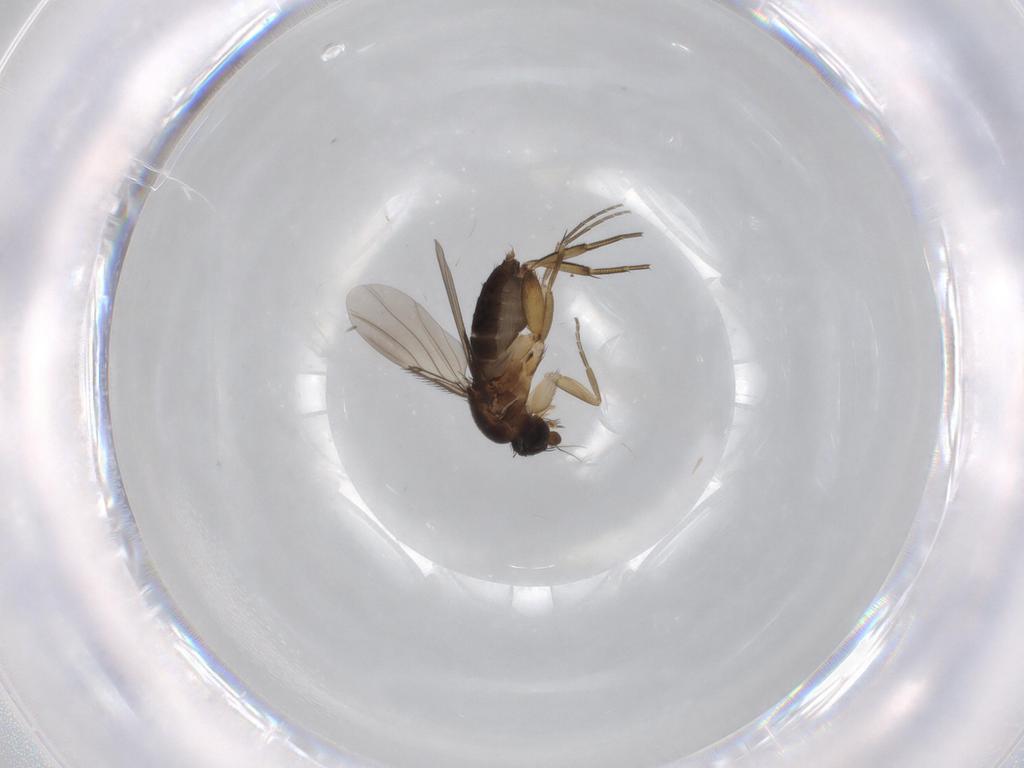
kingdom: Animalia
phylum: Arthropoda
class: Insecta
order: Diptera
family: Phoridae
